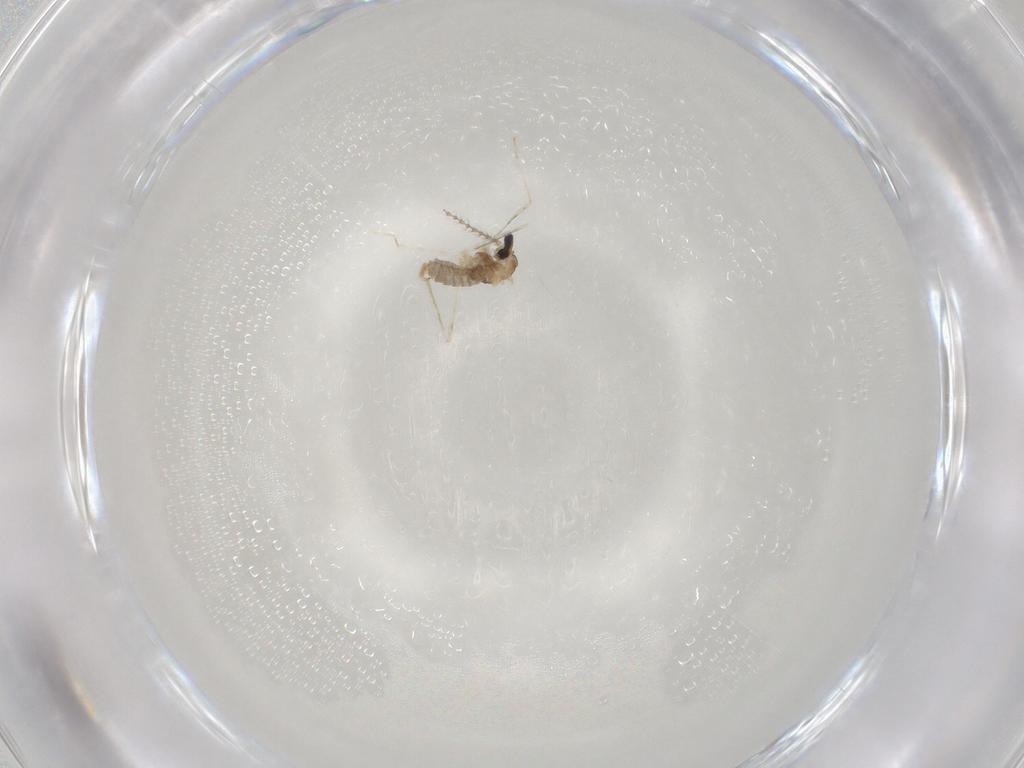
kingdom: Animalia
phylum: Arthropoda
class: Insecta
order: Diptera
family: Cecidomyiidae
